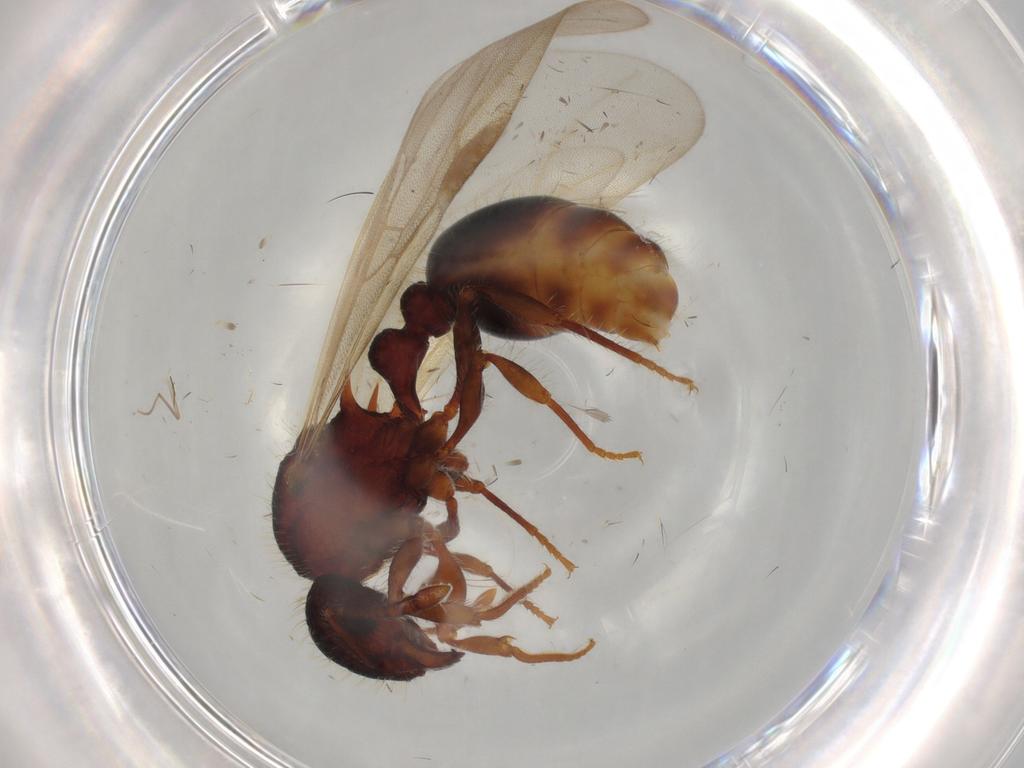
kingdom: Animalia
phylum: Arthropoda
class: Insecta
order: Hymenoptera
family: Formicidae
